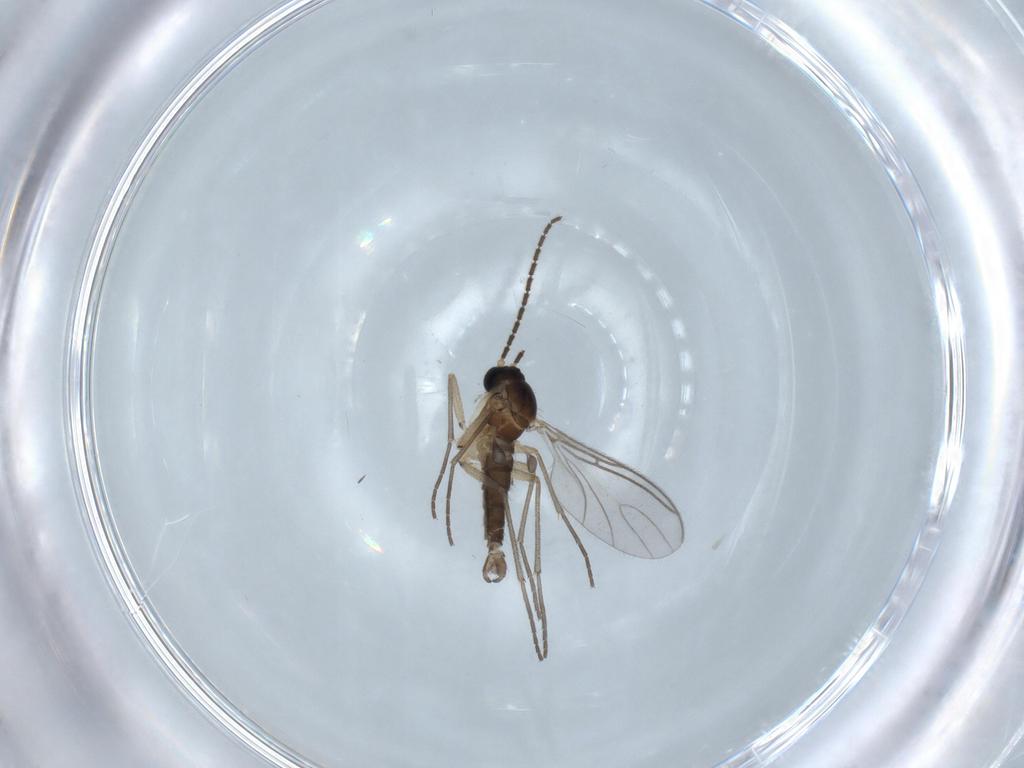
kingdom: Animalia
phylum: Arthropoda
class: Insecta
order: Diptera
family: Sciaridae
